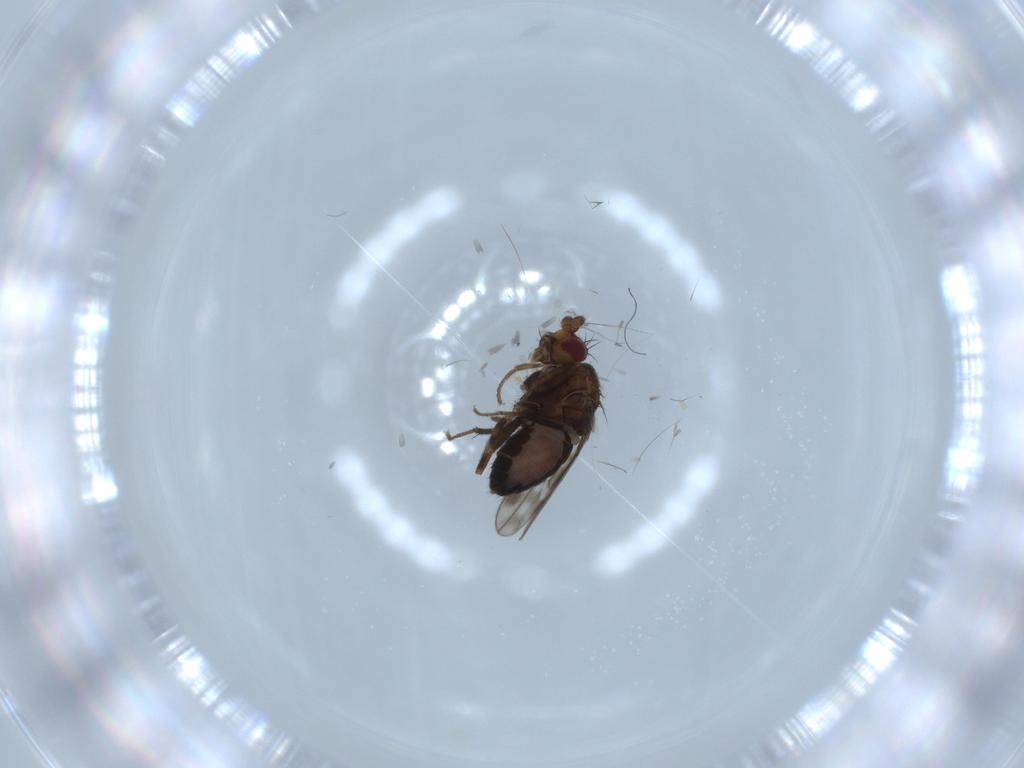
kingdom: Animalia
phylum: Arthropoda
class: Insecta
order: Diptera
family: Sphaeroceridae
